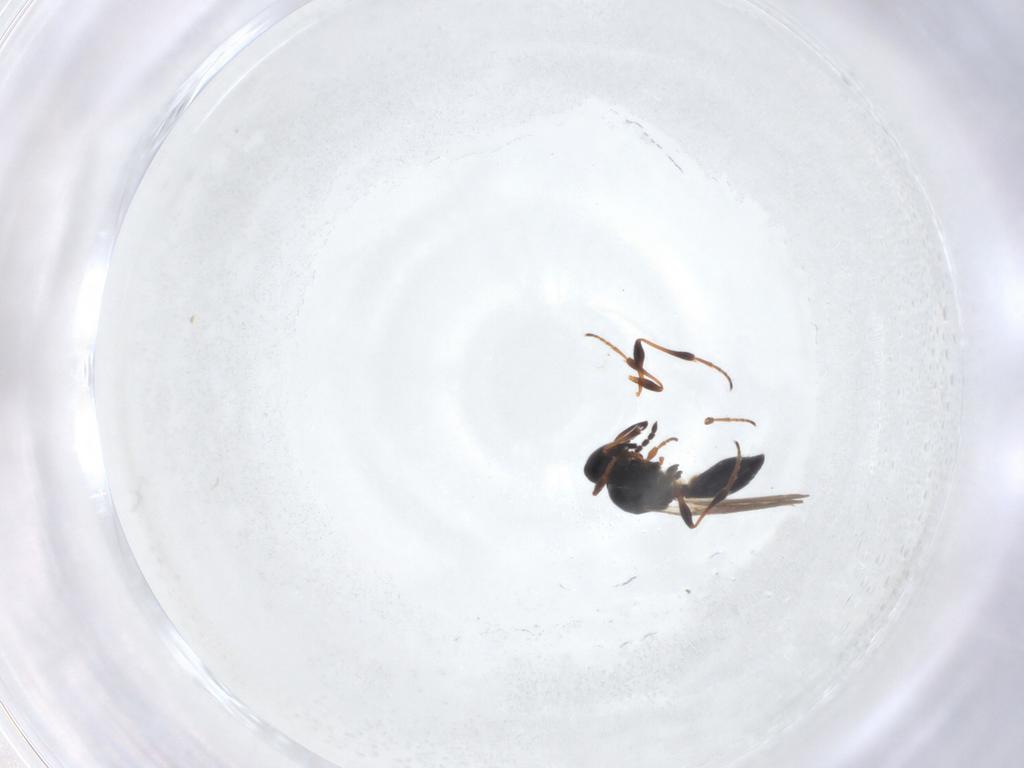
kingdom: Animalia
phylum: Arthropoda
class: Insecta
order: Hymenoptera
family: Platygastridae
